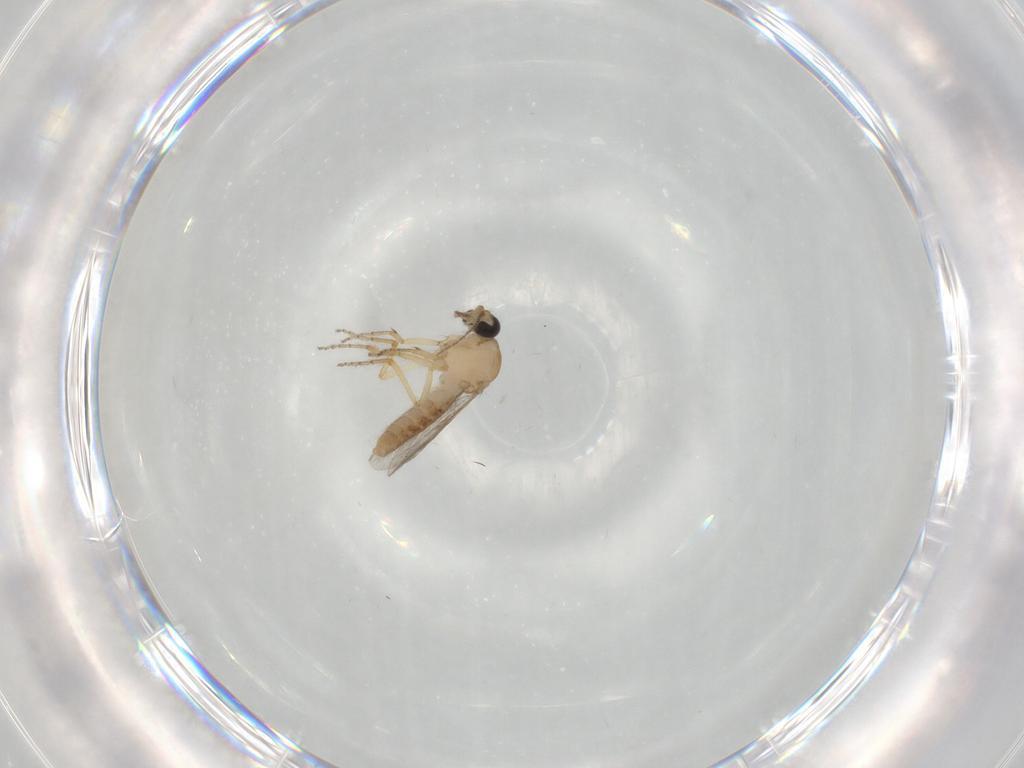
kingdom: Animalia
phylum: Arthropoda
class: Insecta
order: Diptera
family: Ceratopogonidae
